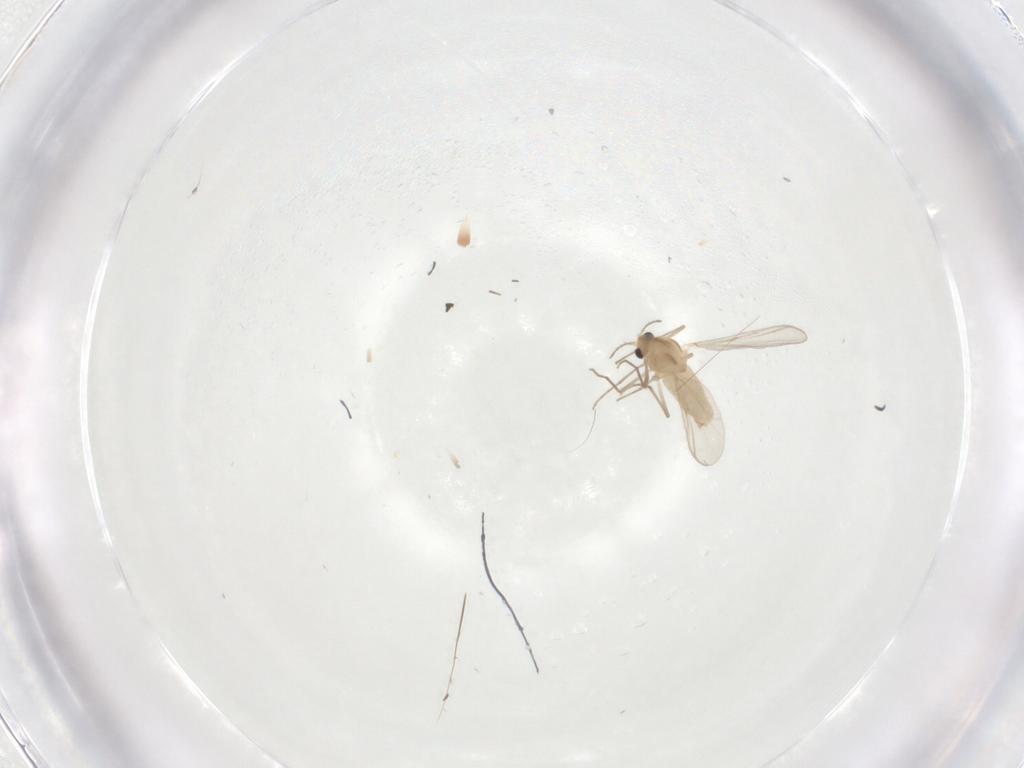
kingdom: Animalia
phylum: Arthropoda
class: Insecta
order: Diptera
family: Chironomidae
